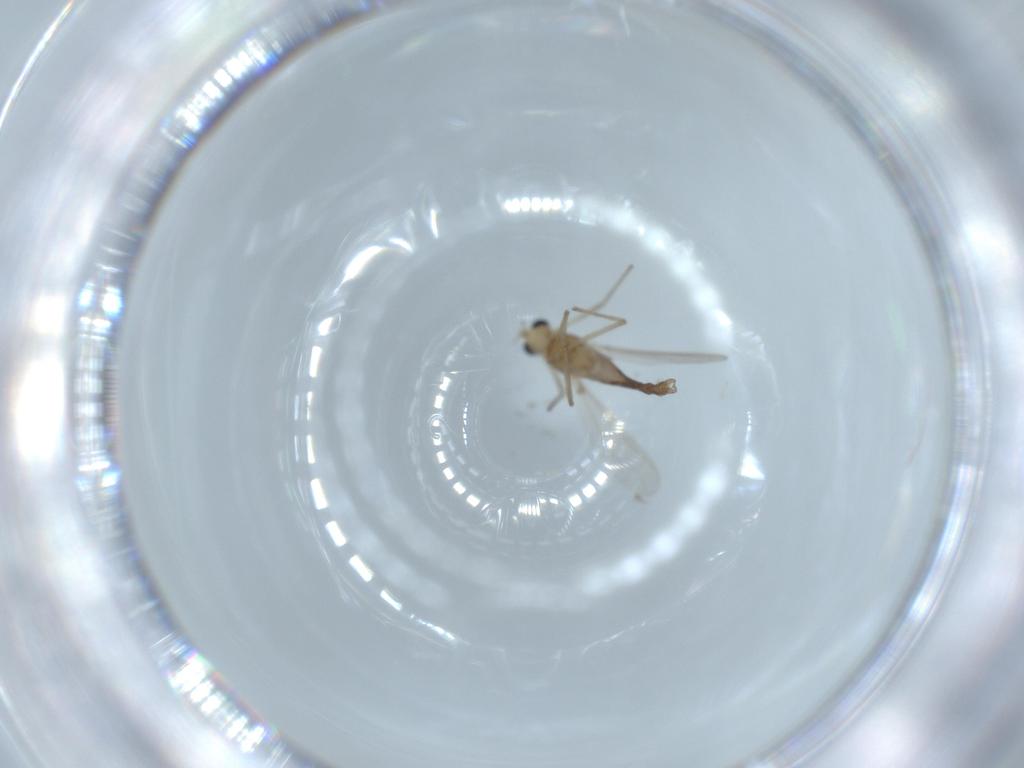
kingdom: Animalia
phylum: Arthropoda
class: Insecta
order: Diptera
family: Chironomidae
